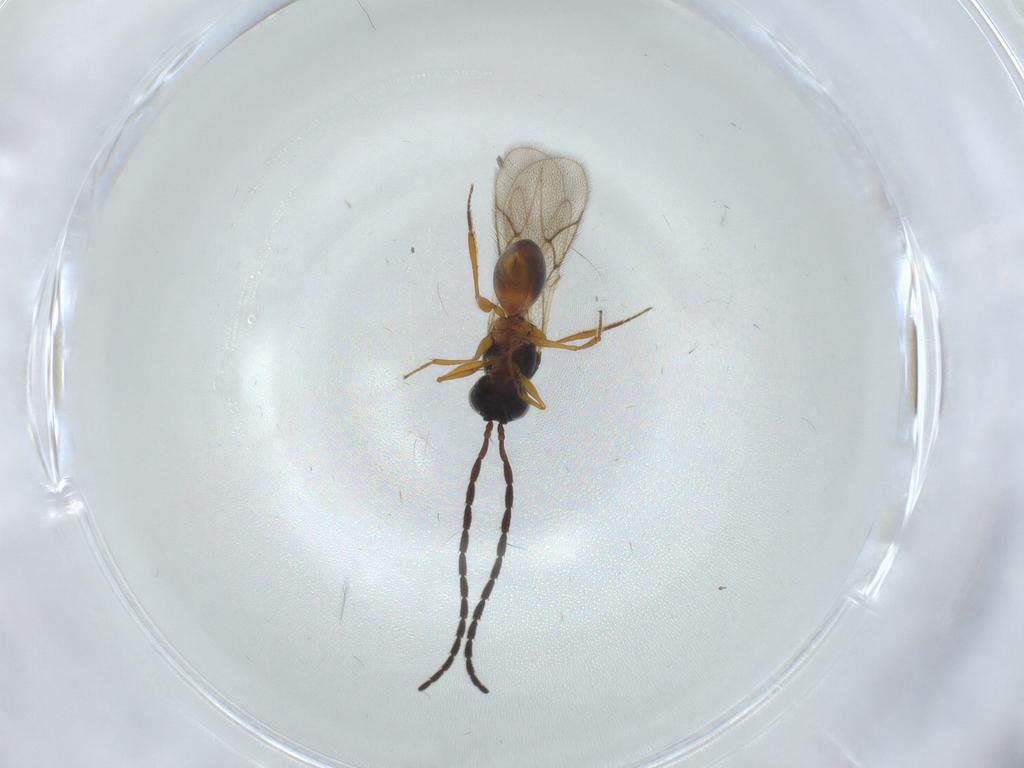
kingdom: Animalia
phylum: Arthropoda
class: Insecta
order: Hymenoptera
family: Figitidae
